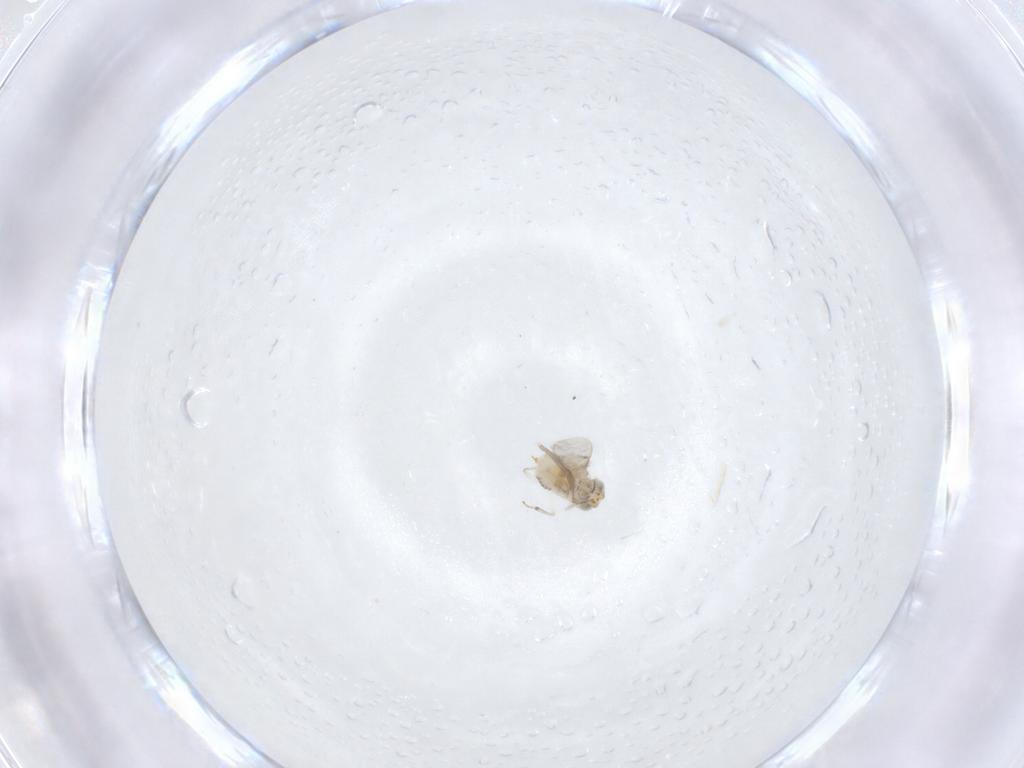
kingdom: Animalia
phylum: Arthropoda
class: Insecta
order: Hymenoptera
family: Aphelinidae
